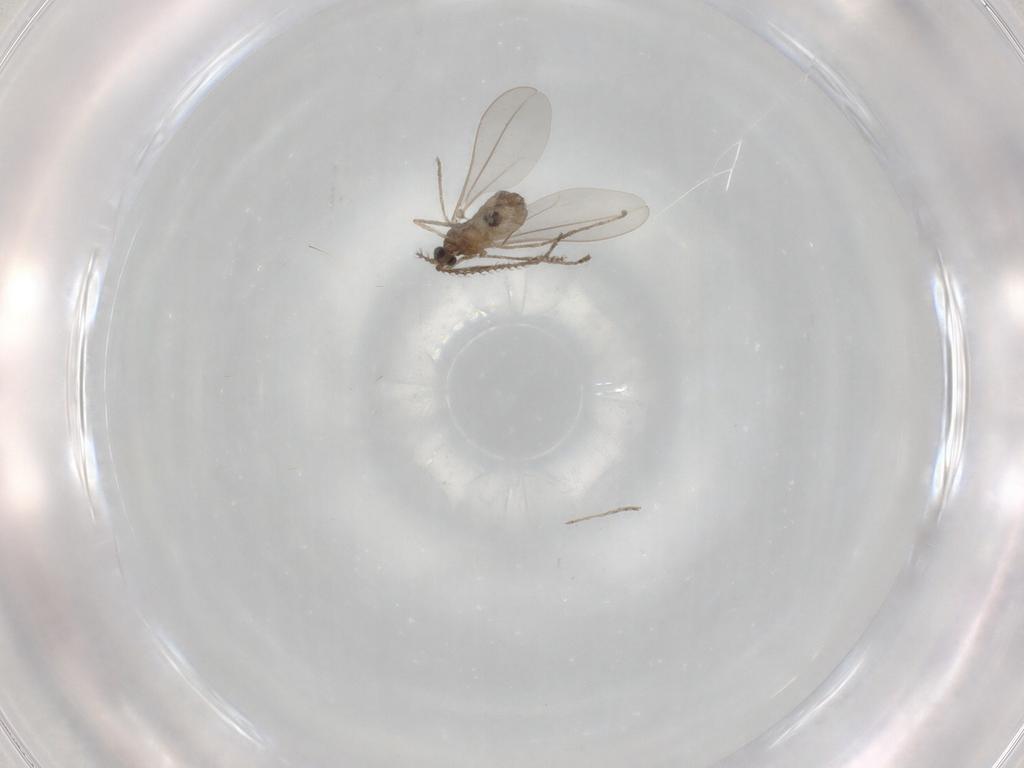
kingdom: Animalia
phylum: Arthropoda
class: Insecta
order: Diptera
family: Cecidomyiidae
